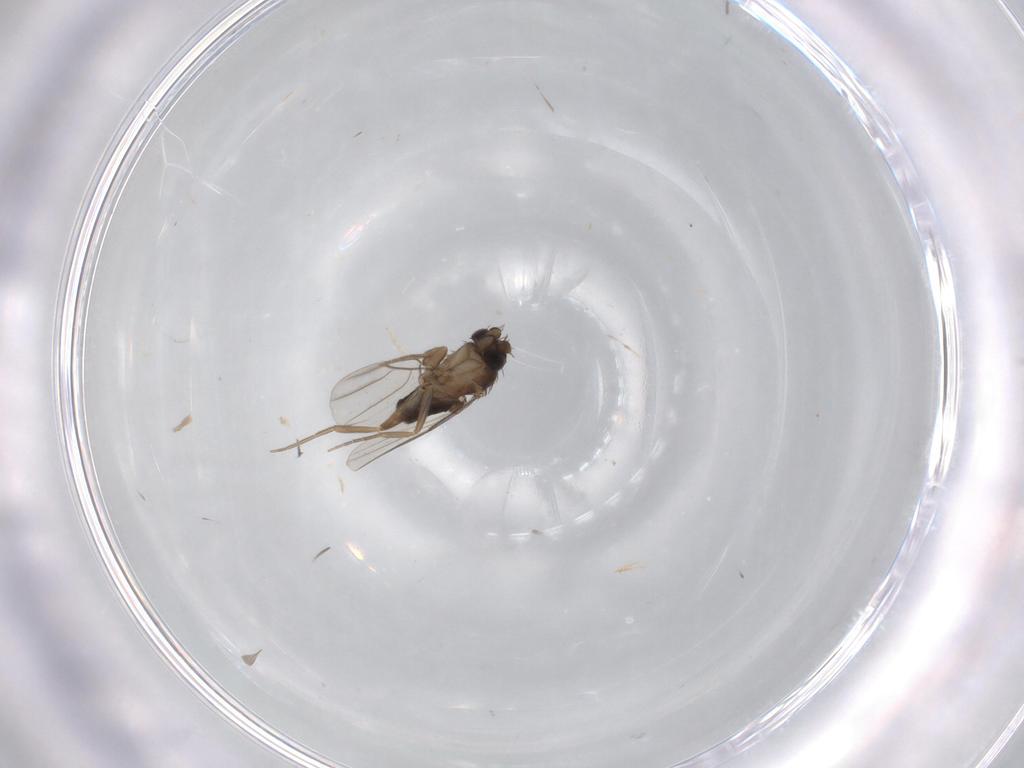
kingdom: Animalia
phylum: Arthropoda
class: Insecta
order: Diptera
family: Phoridae
